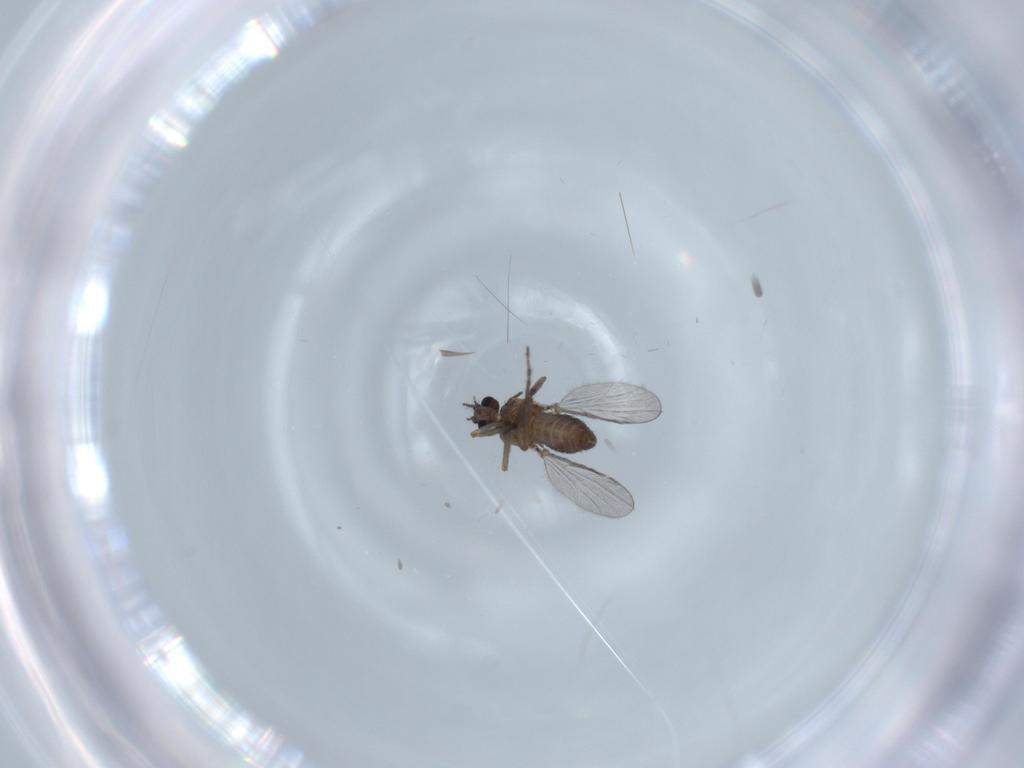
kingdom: Animalia
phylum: Arthropoda
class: Insecta
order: Diptera
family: Ceratopogonidae
